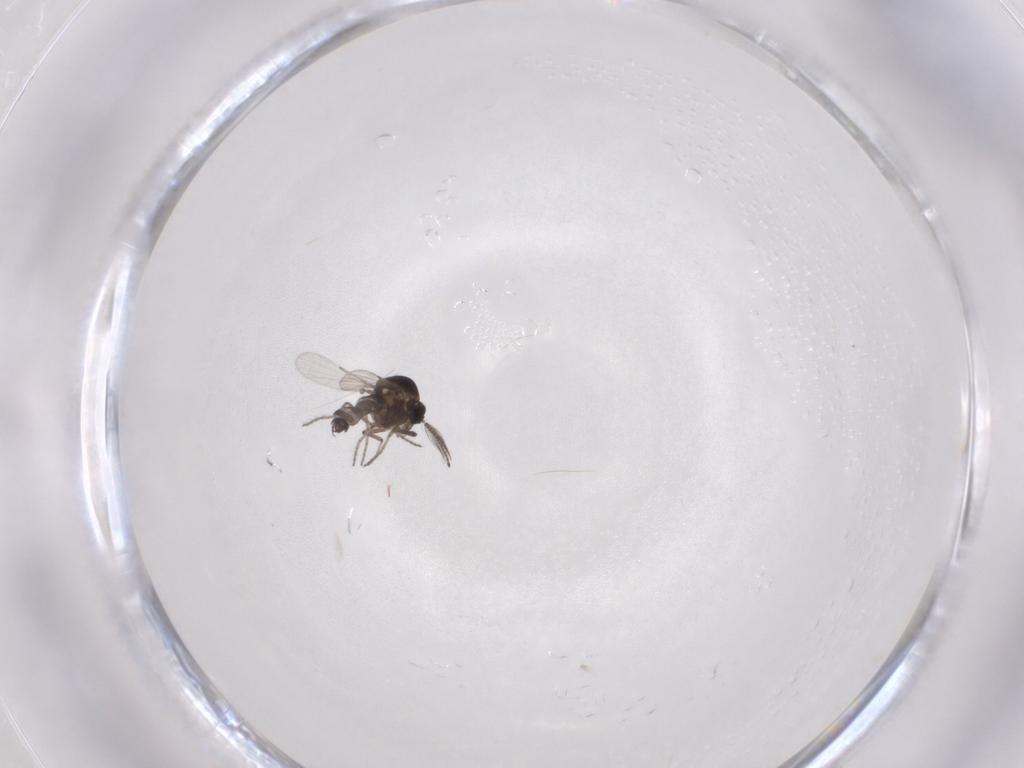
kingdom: Animalia
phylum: Arthropoda
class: Insecta
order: Diptera
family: Ceratopogonidae
